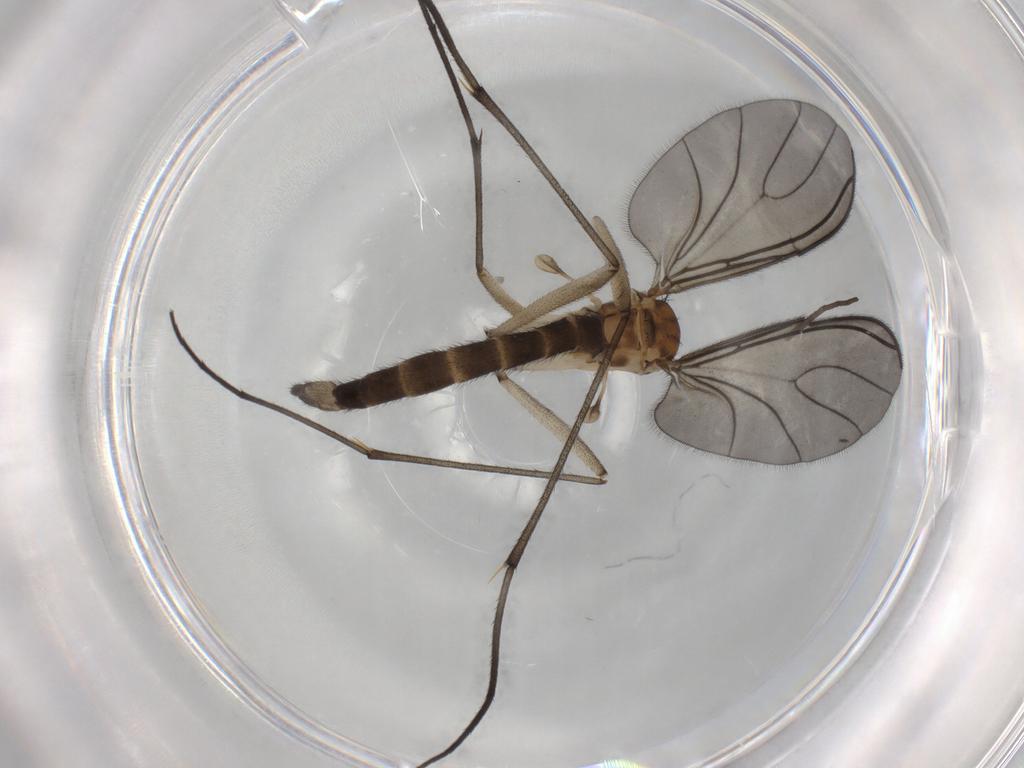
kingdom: Animalia
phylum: Arthropoda
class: Insecta
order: Diptera
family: Sciaridae
